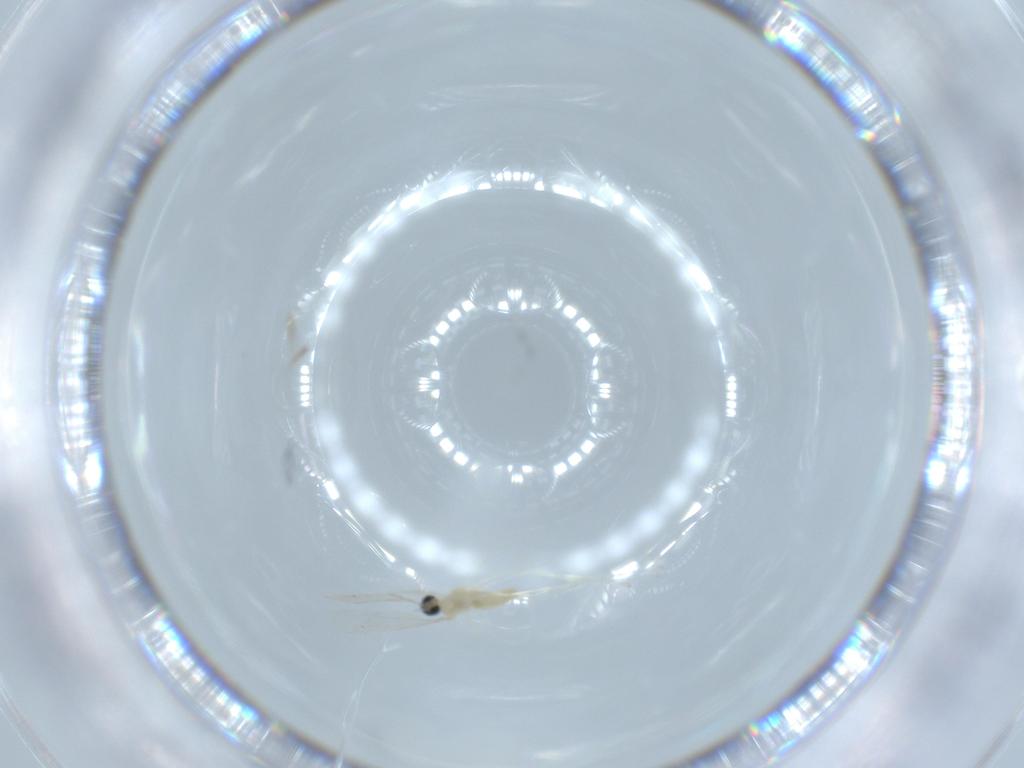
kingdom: Animalia
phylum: Arthropoda
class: Insecta
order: Diptera
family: Cecidomyiidae
